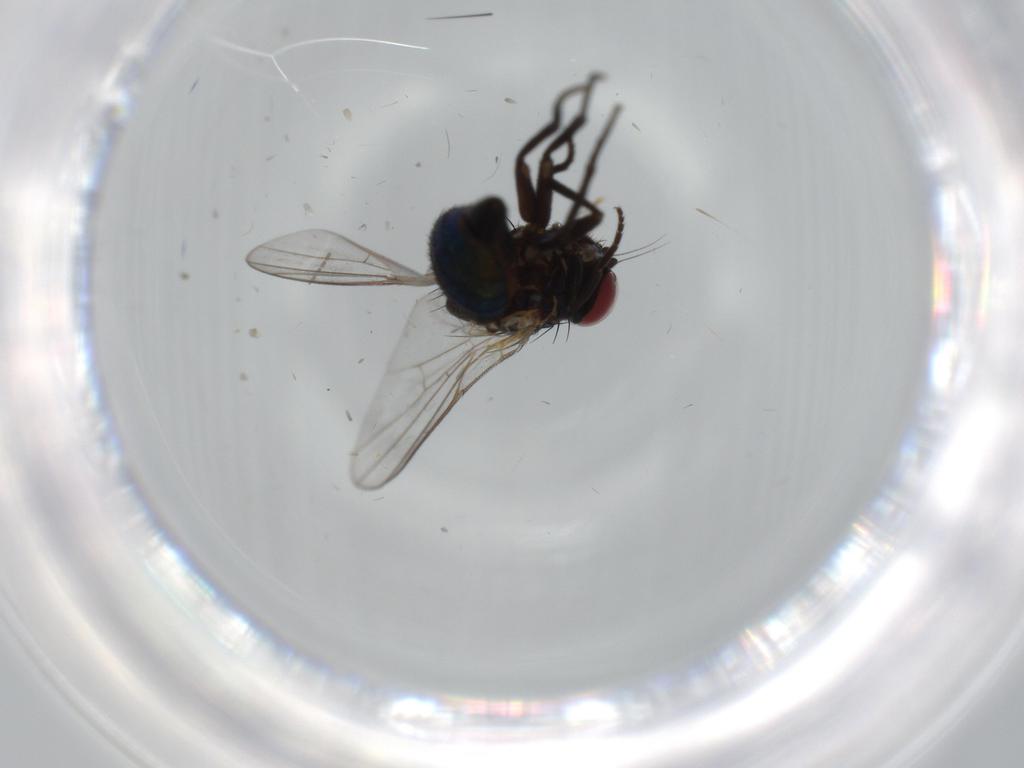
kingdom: Animalia
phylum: Arthropoda
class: Insecta
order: Diptera
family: Agromyzidae
